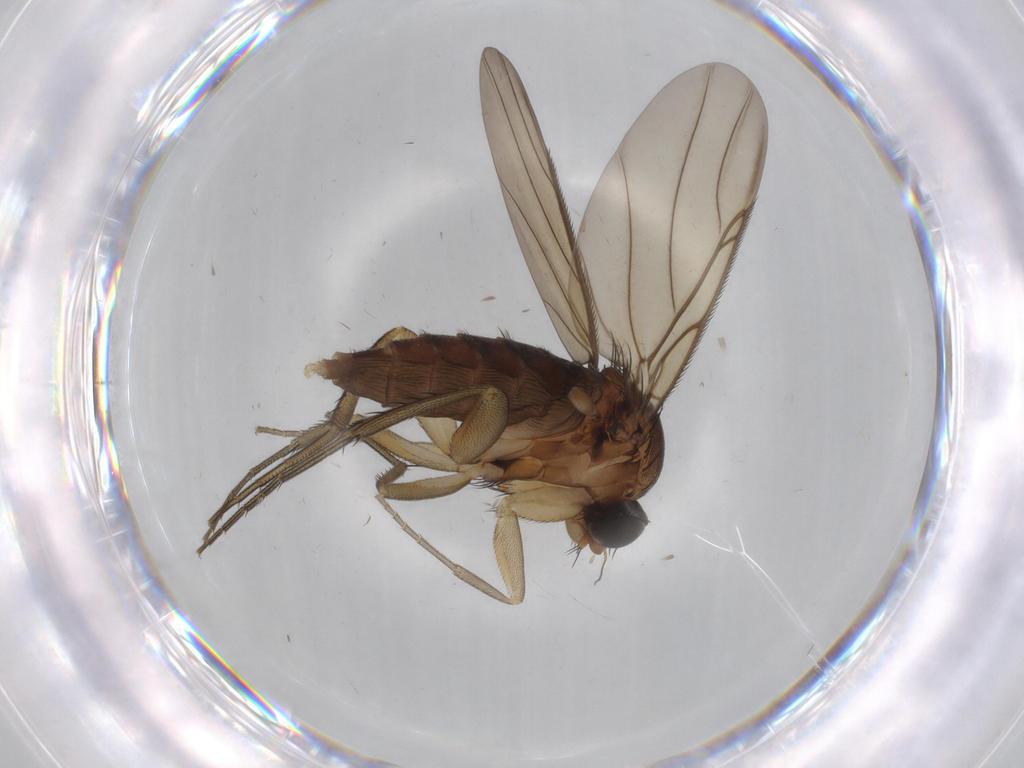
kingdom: Animalia
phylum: Arthropoda
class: Insecta
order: Diptera
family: Phoridae
